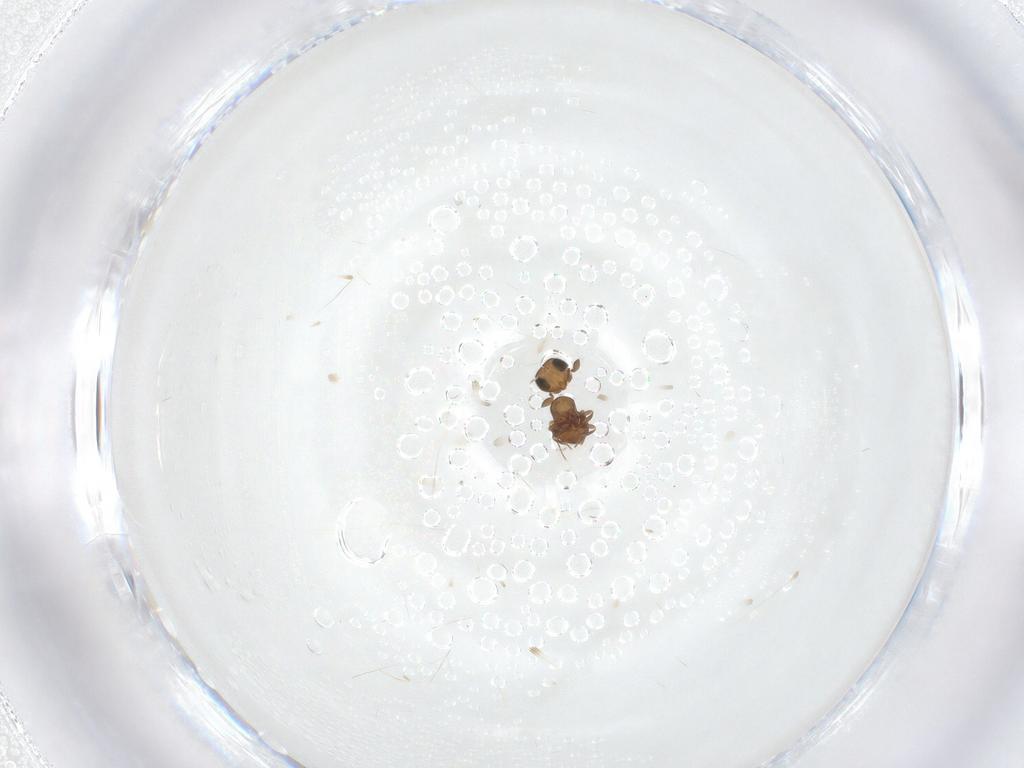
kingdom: Animalia
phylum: Arthropoda
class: Insecta
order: Hymenoptera
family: Scelionidae
